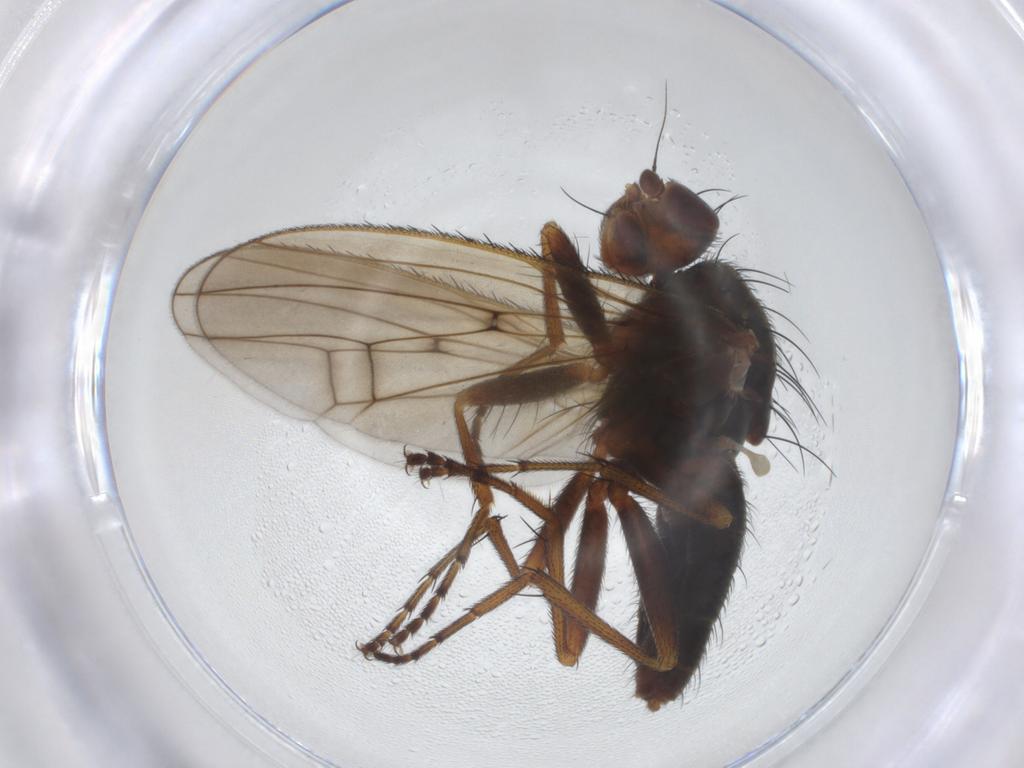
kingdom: Animalia
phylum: Arthropoda
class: Insecta
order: Diptera
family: Heleomyzidae
